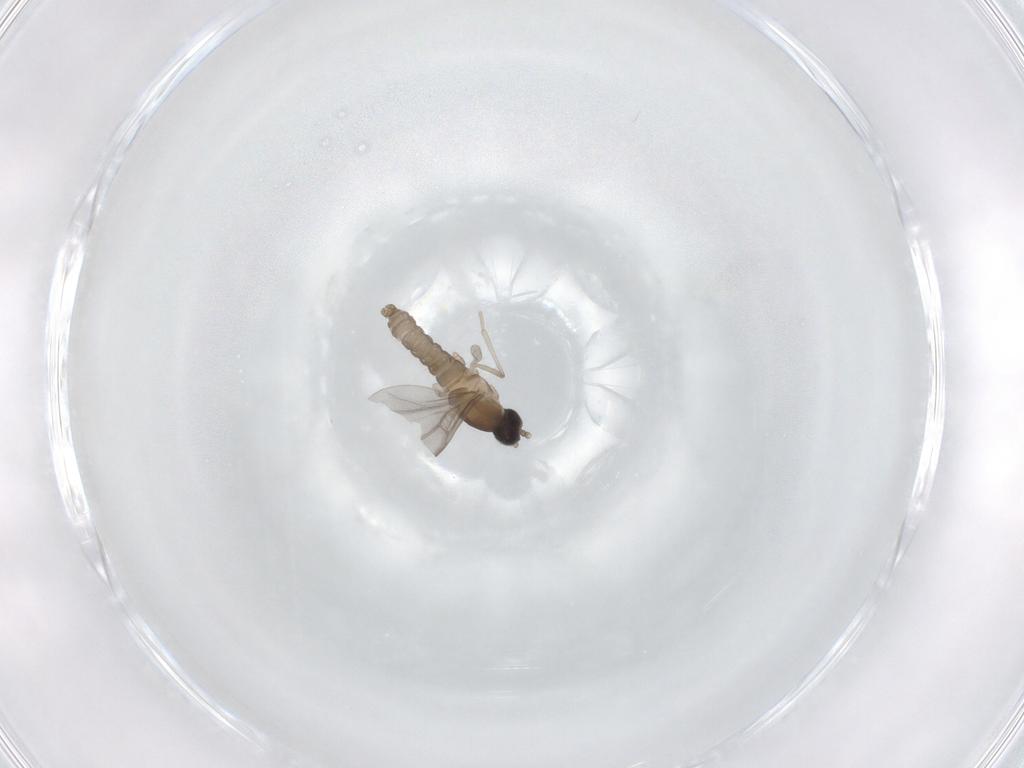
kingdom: Animalia
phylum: Arthropoda
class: Insecta
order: Diptera
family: Cecidomyiidae
